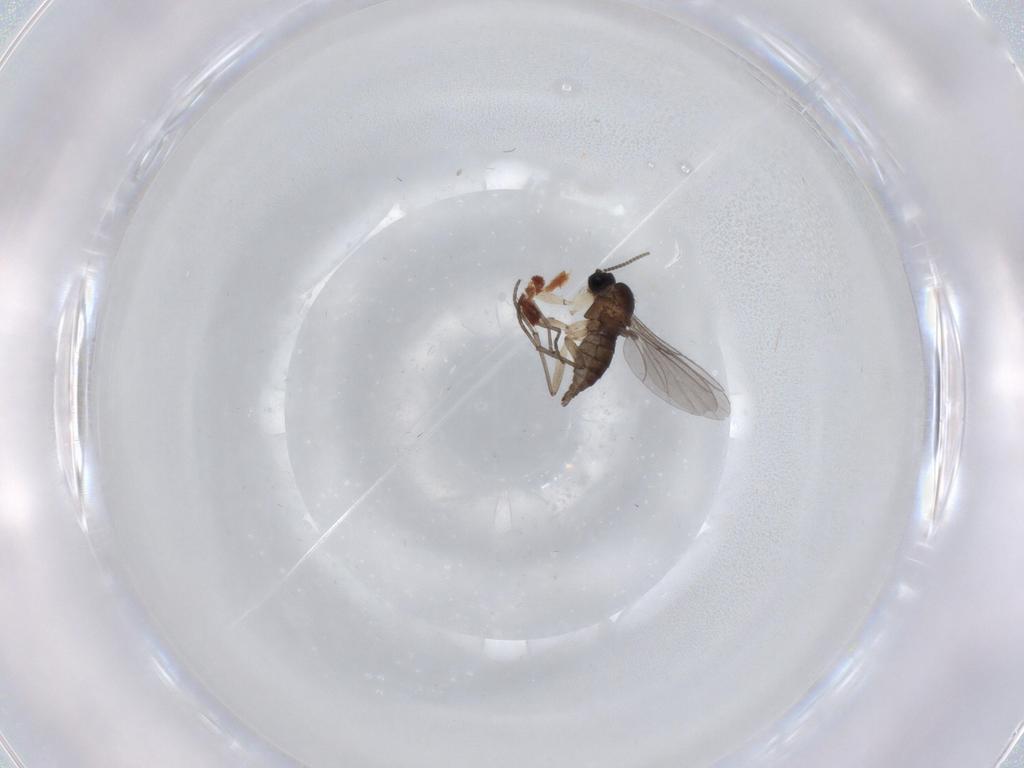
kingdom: Animalia
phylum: Arthropoda
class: Insecta
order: Diptera
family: Sciaridae
